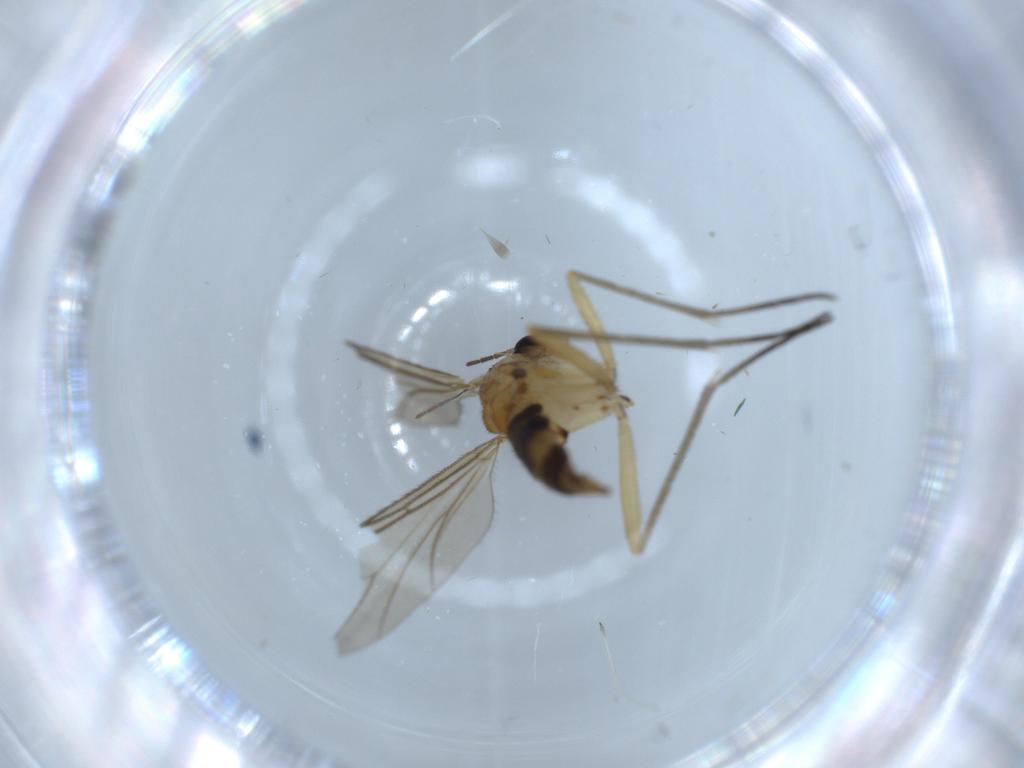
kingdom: Animalia
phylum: Arthropoda
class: Insecta
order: Diptera
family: Sciaridae
